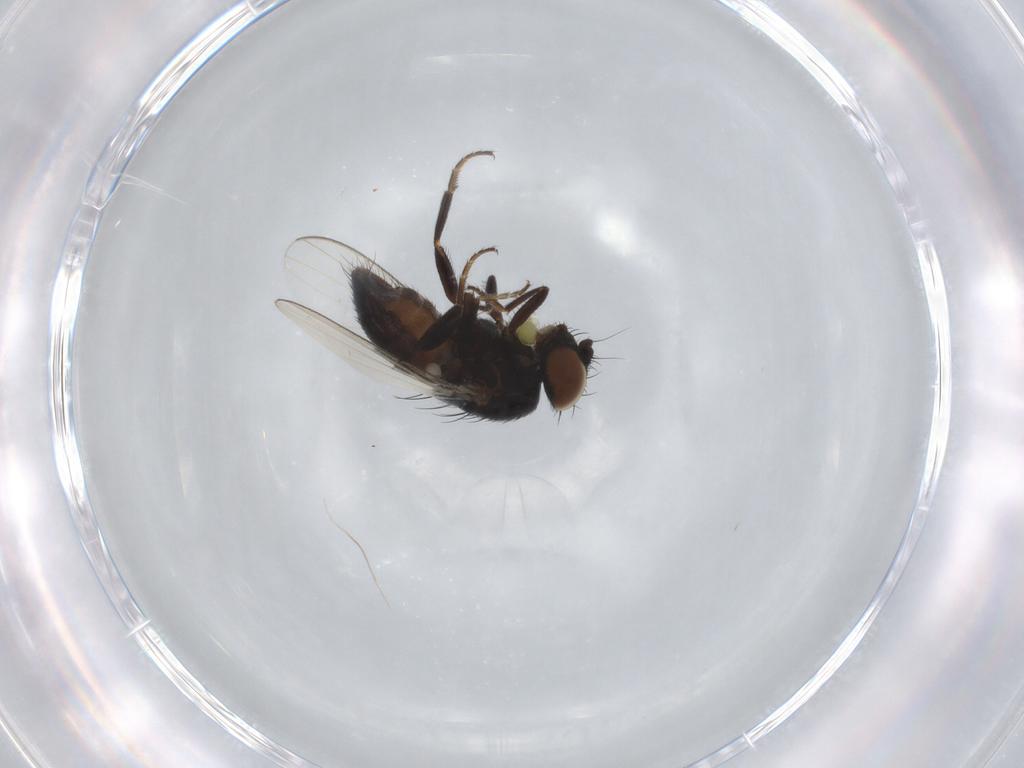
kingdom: Animalia
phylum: Arthropoda
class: Insecta
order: Diptera
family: Milichiidae
